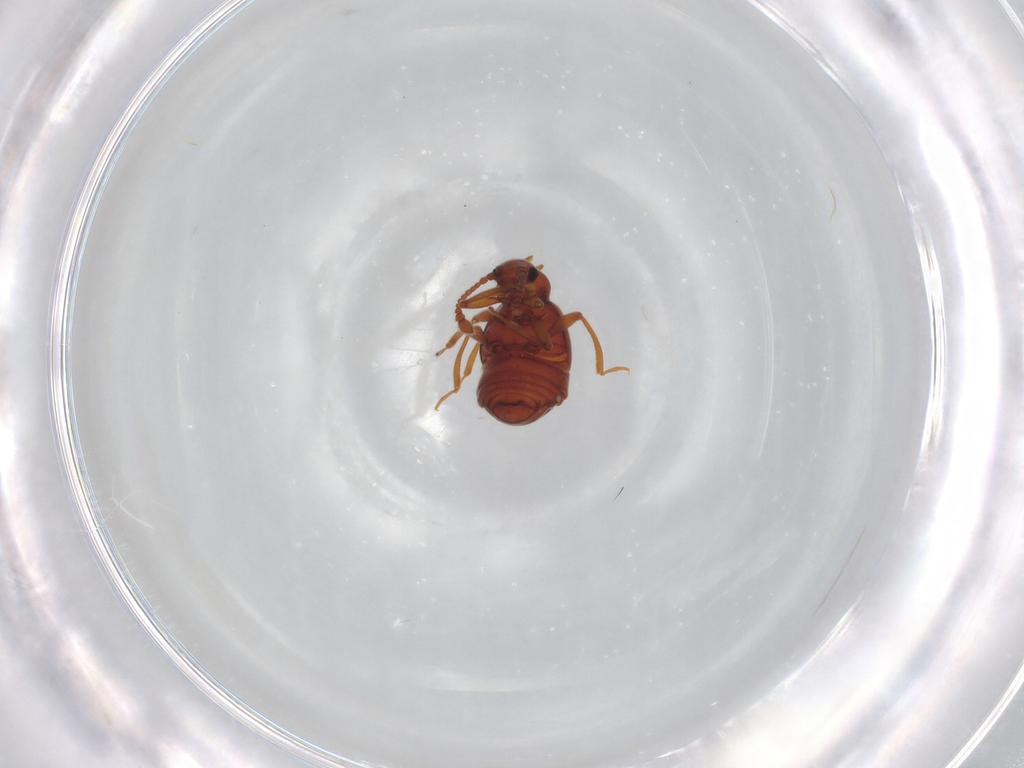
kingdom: Animalia
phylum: Arthropoda
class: Insecta
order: Coleoptera
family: Staphylinidae
